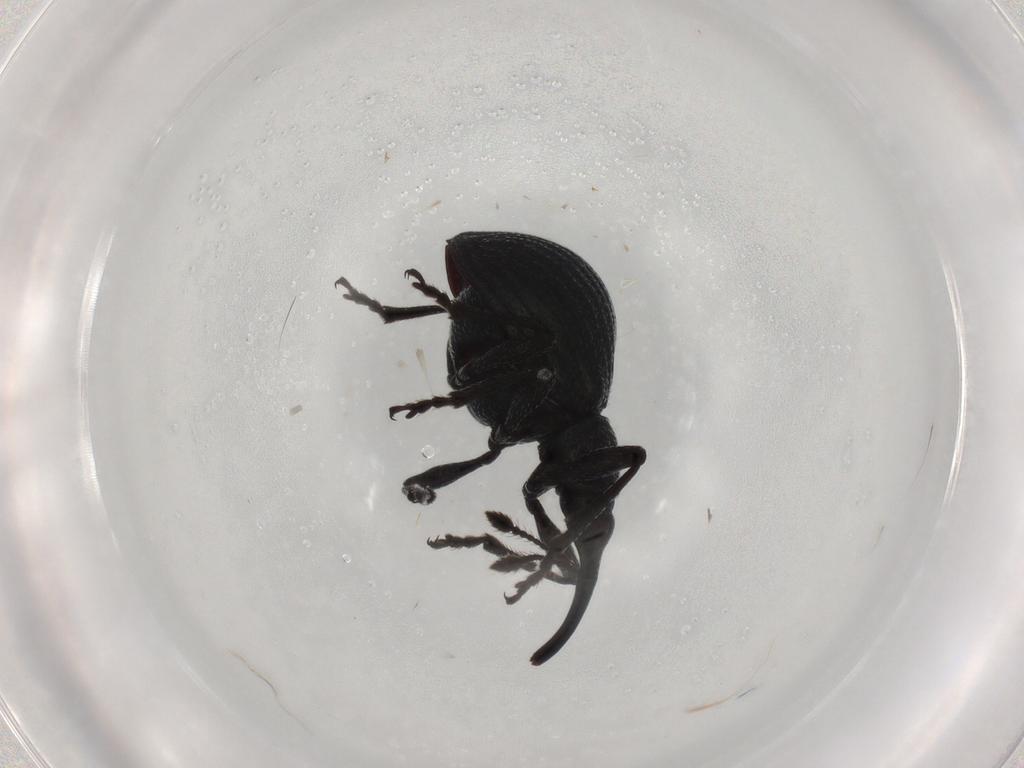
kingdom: Animalia
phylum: Arthropoda
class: Insecta
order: Coleoptera
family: Brentidae
